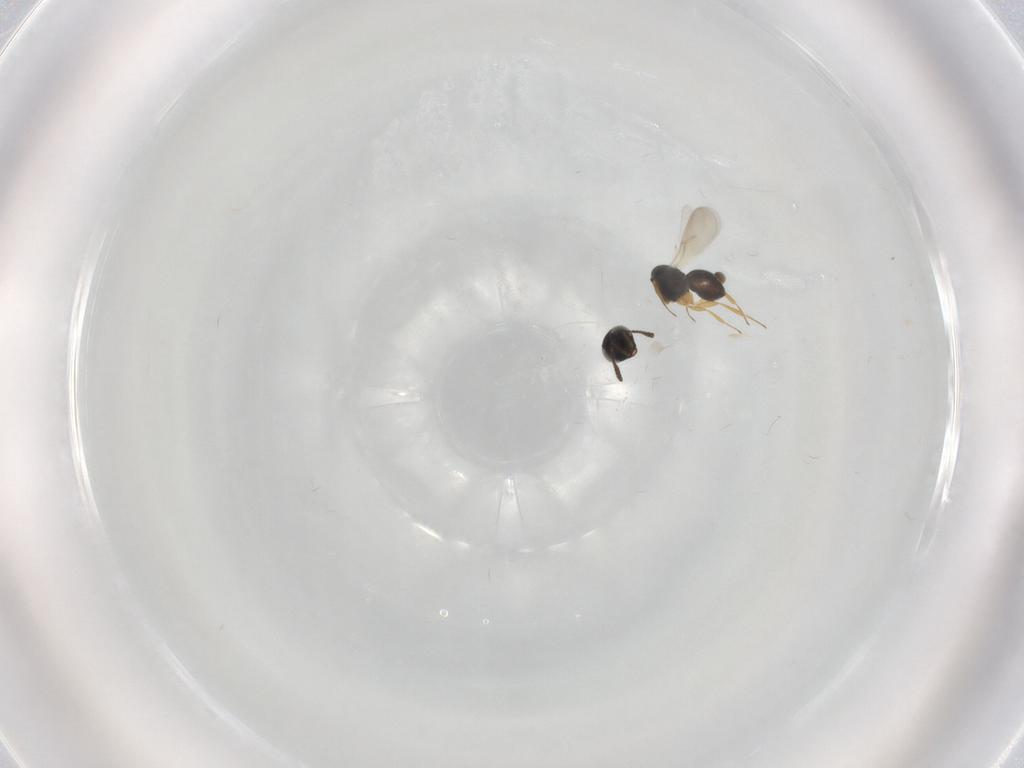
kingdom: Animalia
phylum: Arthropoda
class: Insecta
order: Hymenoptera
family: Scelionidae
